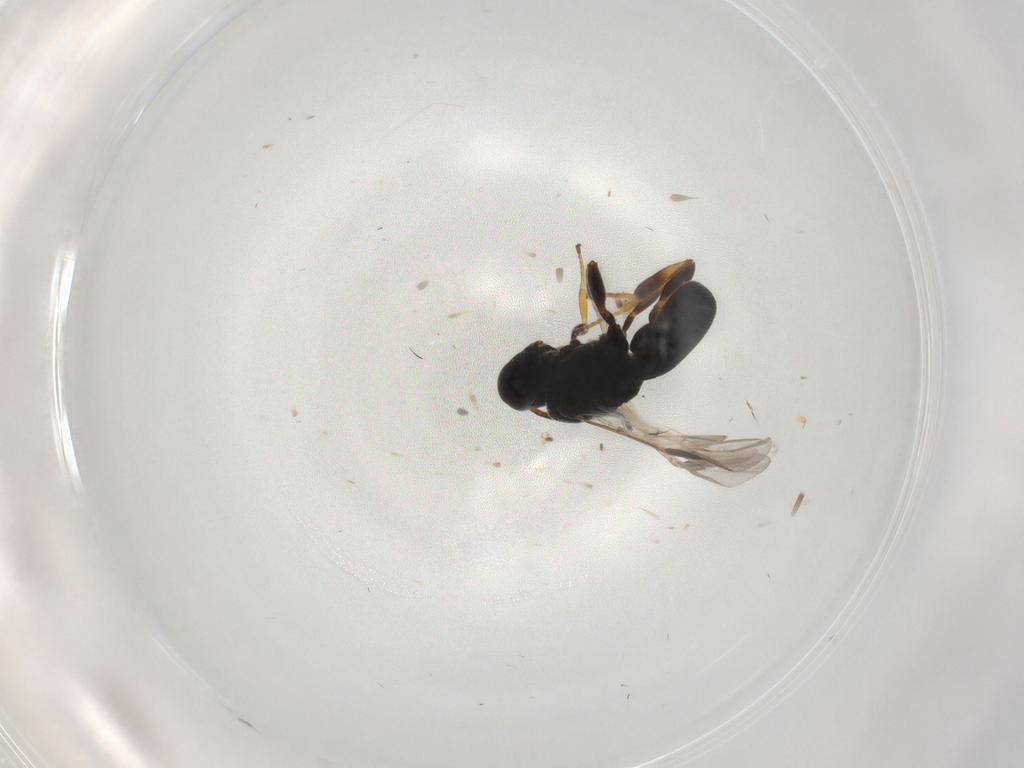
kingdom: Animalia
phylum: Arthropoda
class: Insecta
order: Hymenoptera
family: Braconidae
